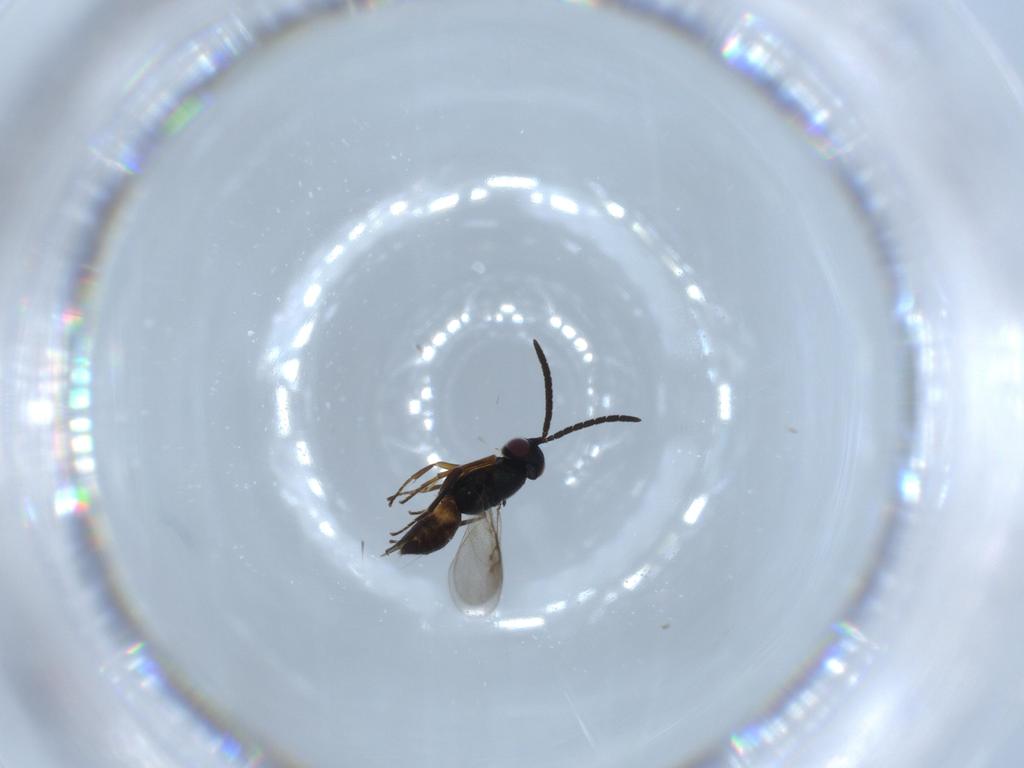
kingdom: Animalia
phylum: Arthropoda
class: Insecta
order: Hymenoptera
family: Encyrtidae
